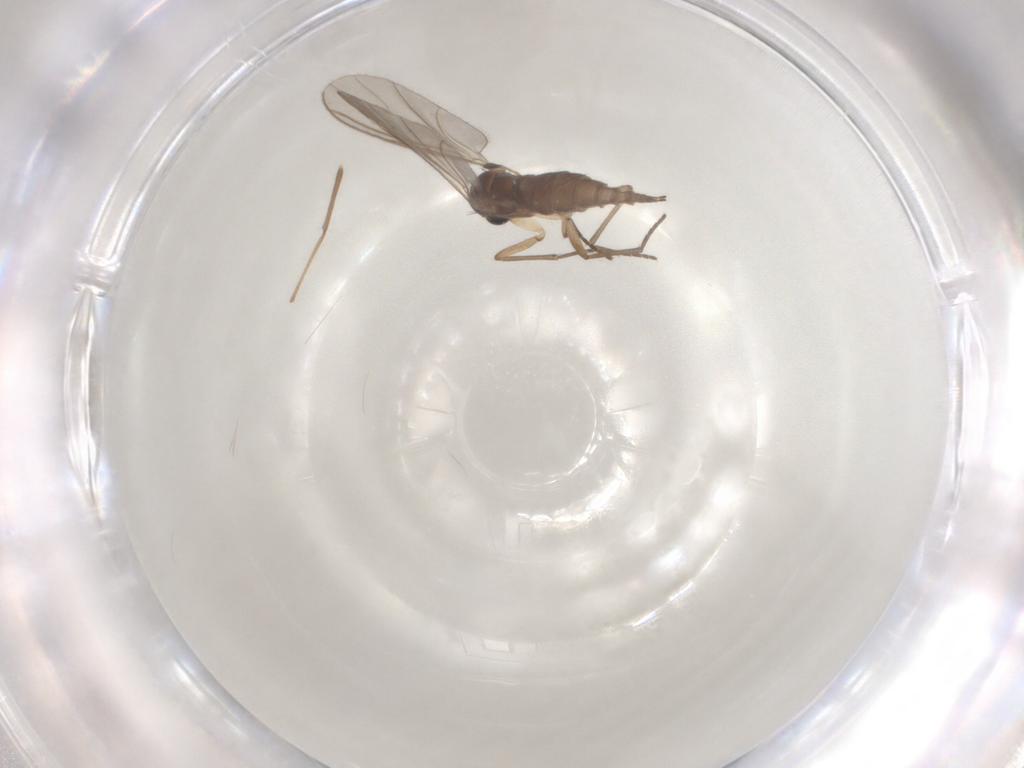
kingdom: Animalia
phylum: Arthropoda
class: Insecta
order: Diptera
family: Sciaridae
